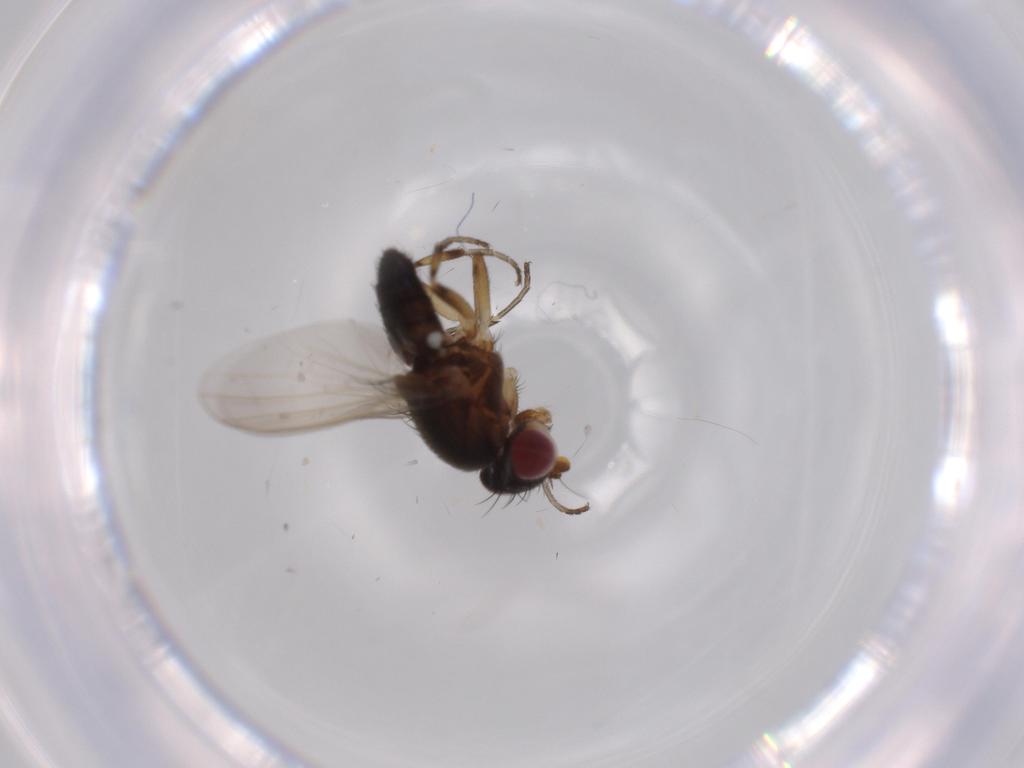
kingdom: Animalia
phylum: Arthropoda
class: Insecta
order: Diptera
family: Heleomyzidae
